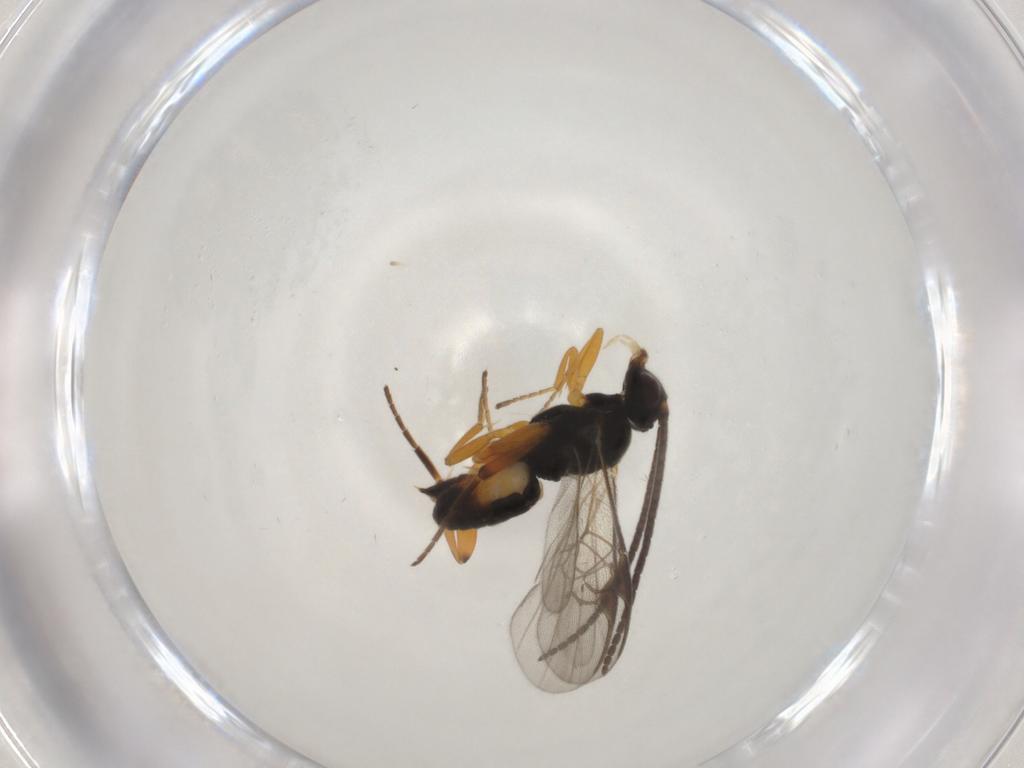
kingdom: Animalia
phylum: Arthropoda
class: Insecta
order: Hymenoptera
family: Braconidae
